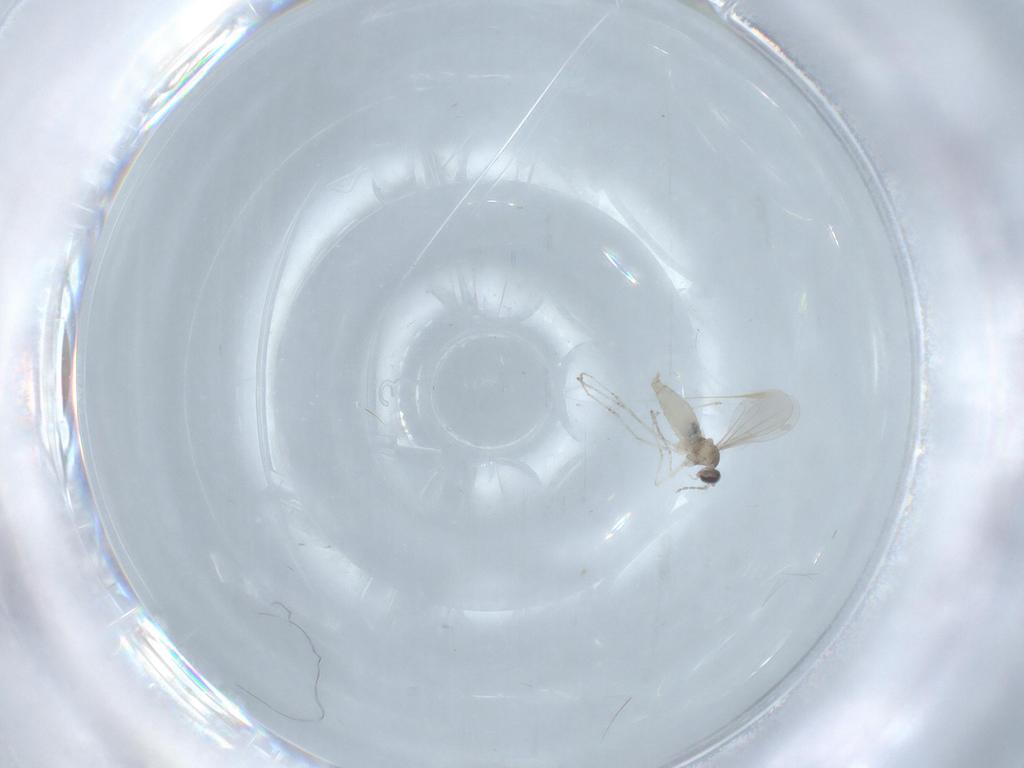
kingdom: Animalia
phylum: Arthropoda
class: Insecta
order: Diptera
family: Cecidomyiidae
